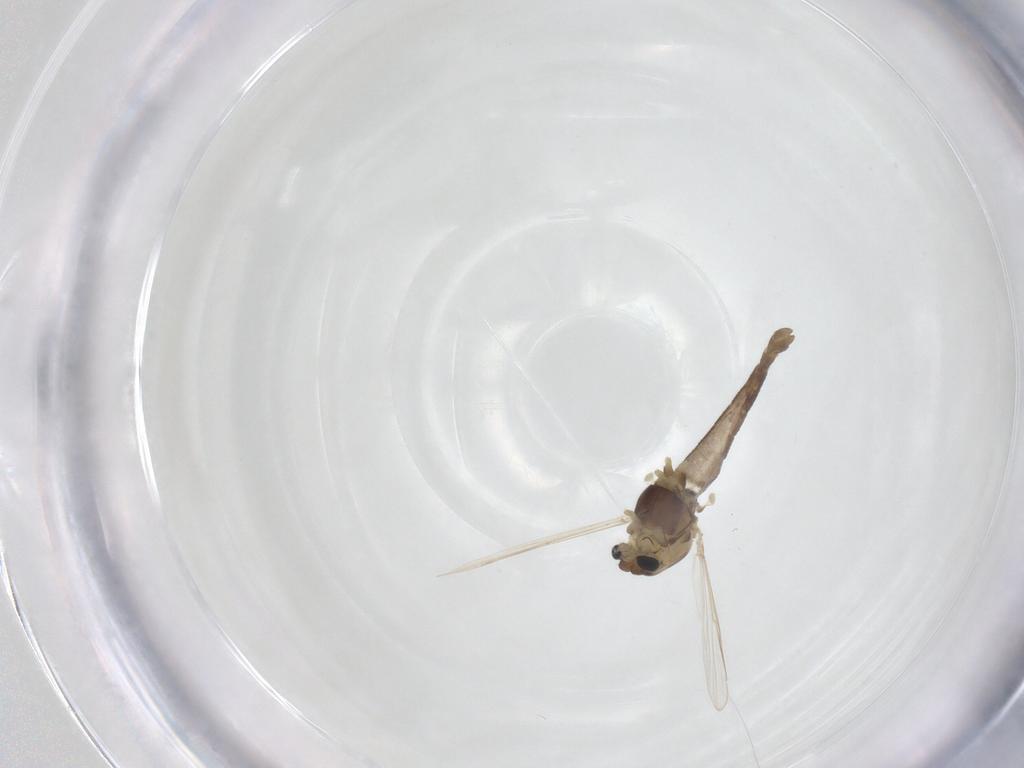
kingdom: Animalia
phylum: Arthropoda
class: Insecta
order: Diptera
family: Chironomidae
